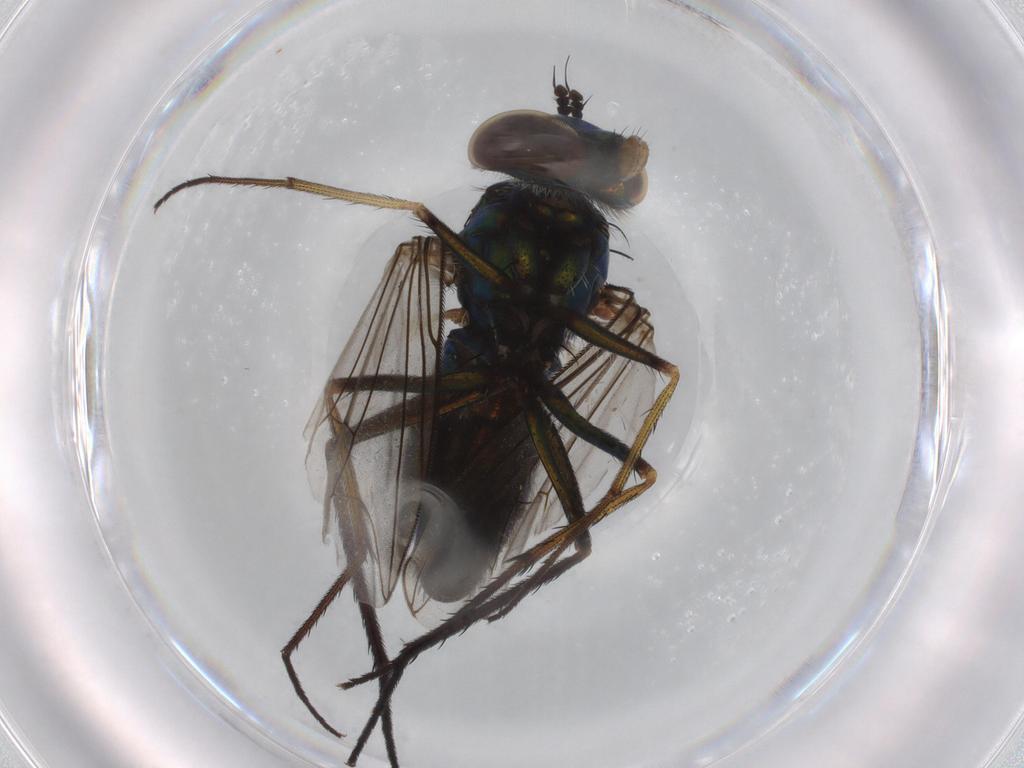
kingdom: Animalia
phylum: Arthropoda
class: Insecta
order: Diptera
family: Dolichopodidae
